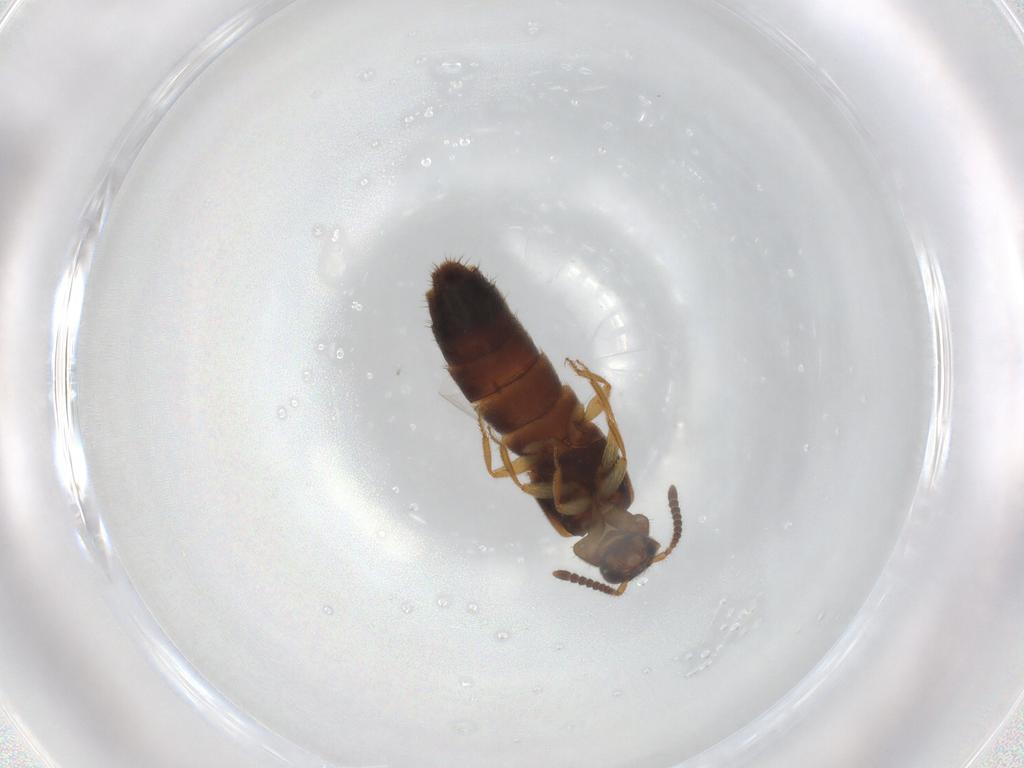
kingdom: Animalia
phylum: Arthropoda
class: Insecta
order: Coleoptera
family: Staphylinidae
